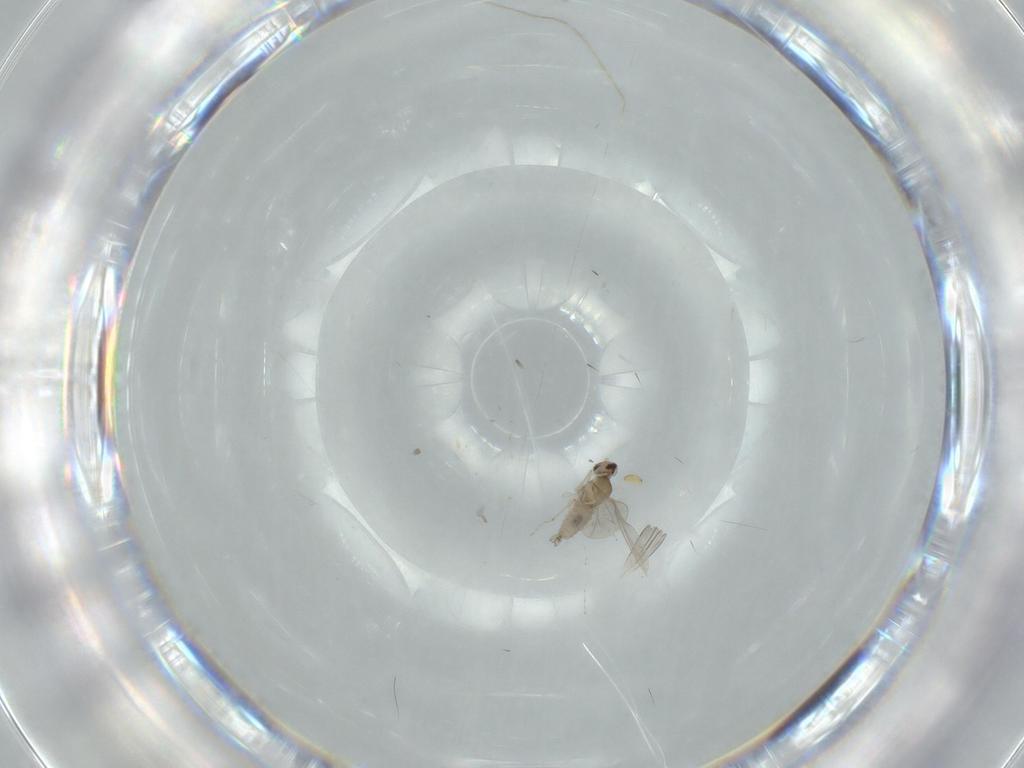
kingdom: Animalia
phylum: Arthropoda
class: Insecta
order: Diptera
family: Cecidomyiidae
